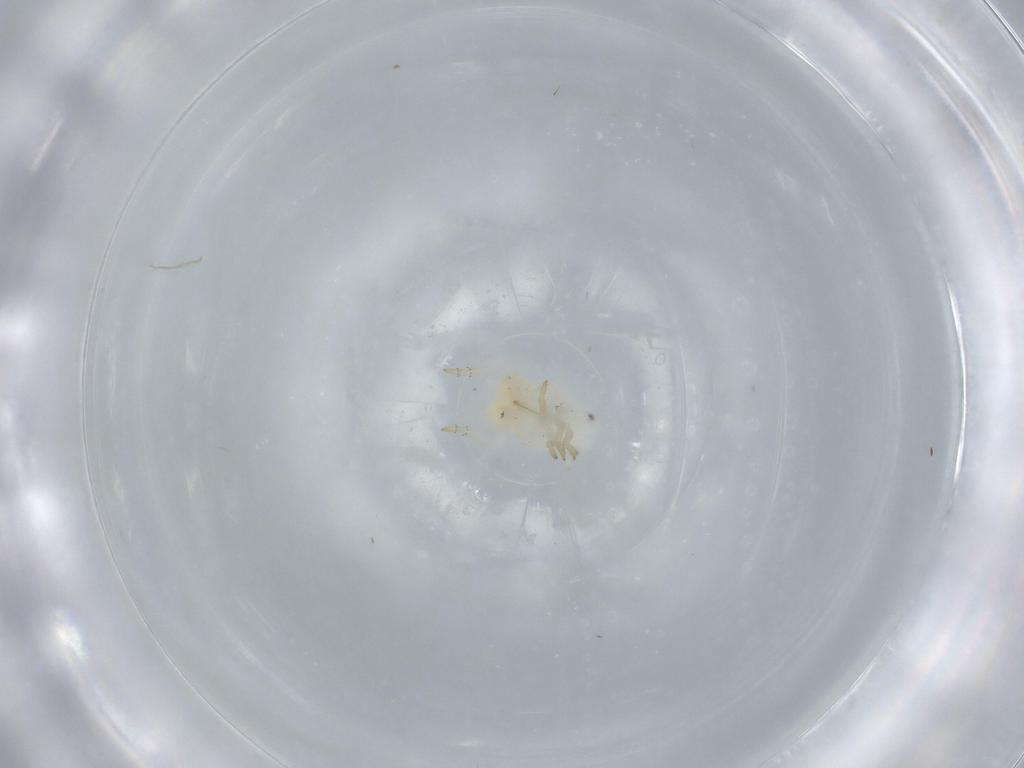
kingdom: Animalia
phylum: Arthropoda
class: Insecta
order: Hemiptera
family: Flatidae
